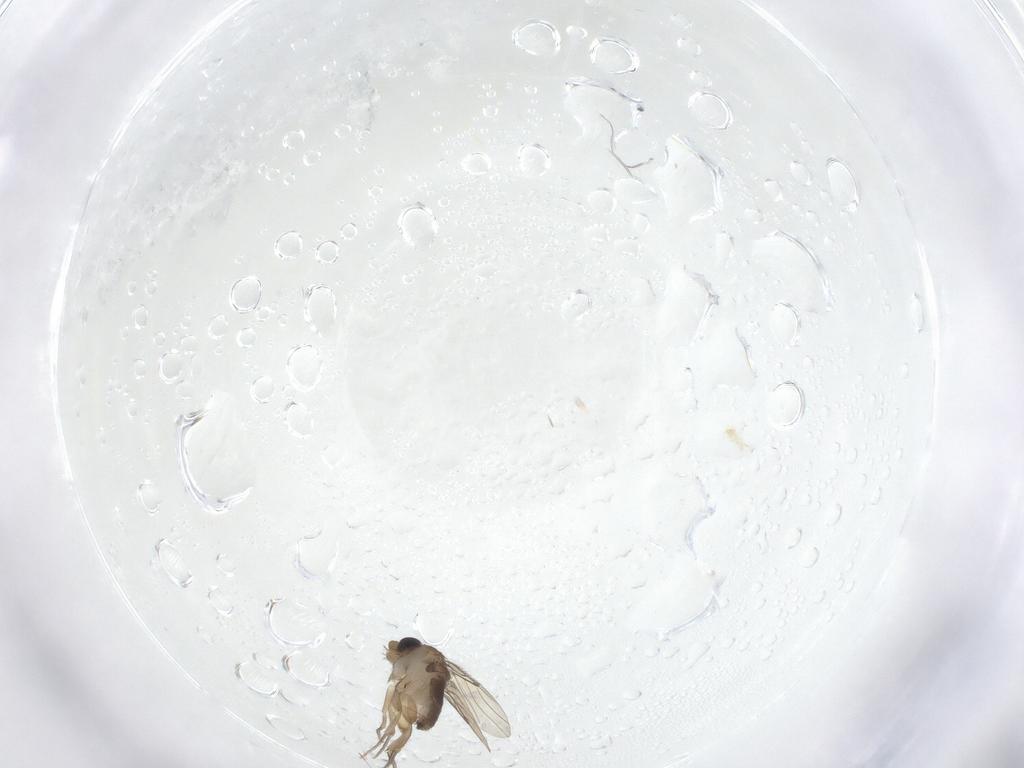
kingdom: Animalia
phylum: Arthropoda
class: Insecta
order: Diptera
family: Phoridae
